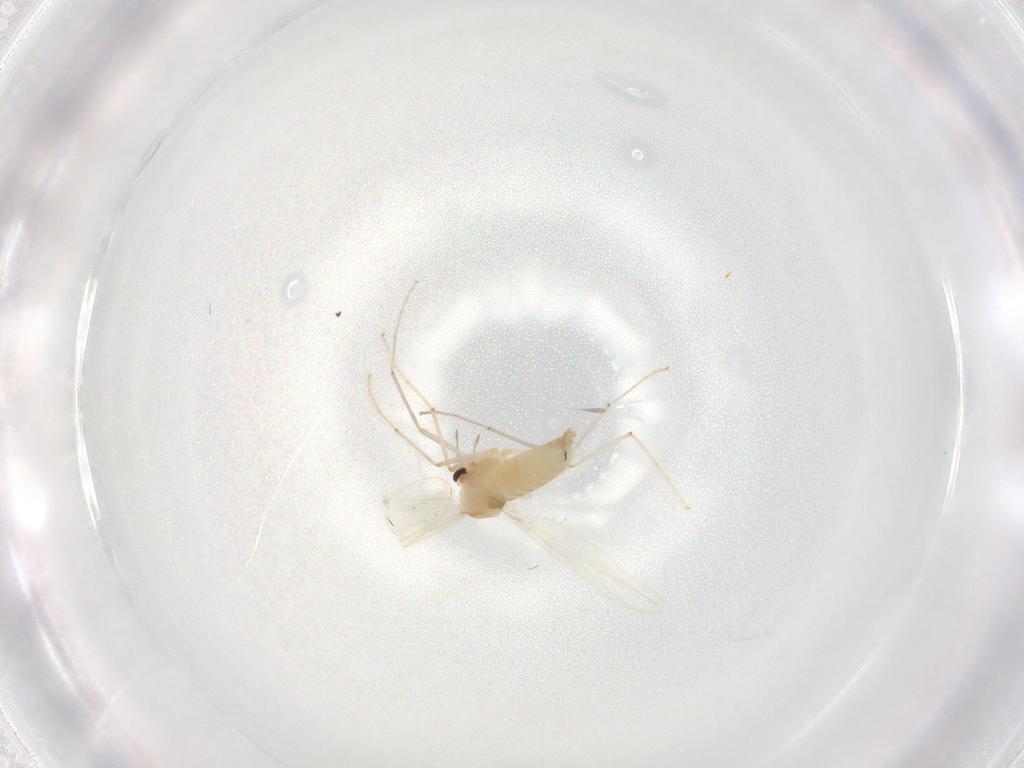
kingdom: Animalia
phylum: Arthropoda
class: Insecta
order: Diptera
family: Chironomidae
